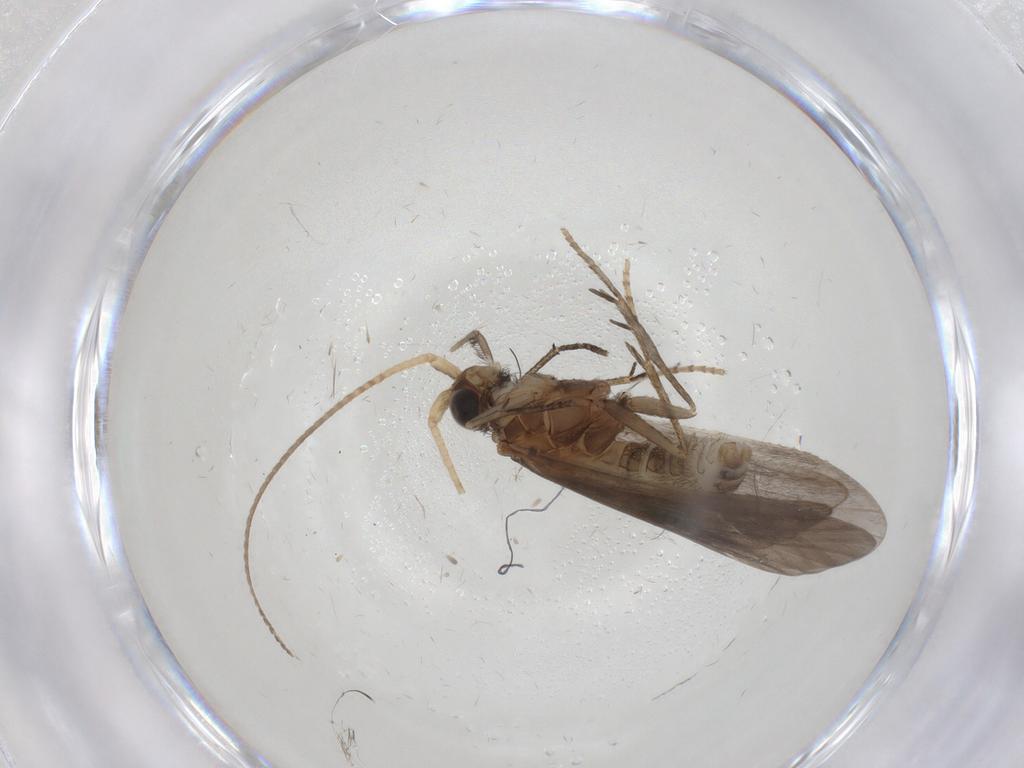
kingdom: Animalia
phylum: Arthropoda
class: Insecta
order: Trichoptera
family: Helicopsychidae
